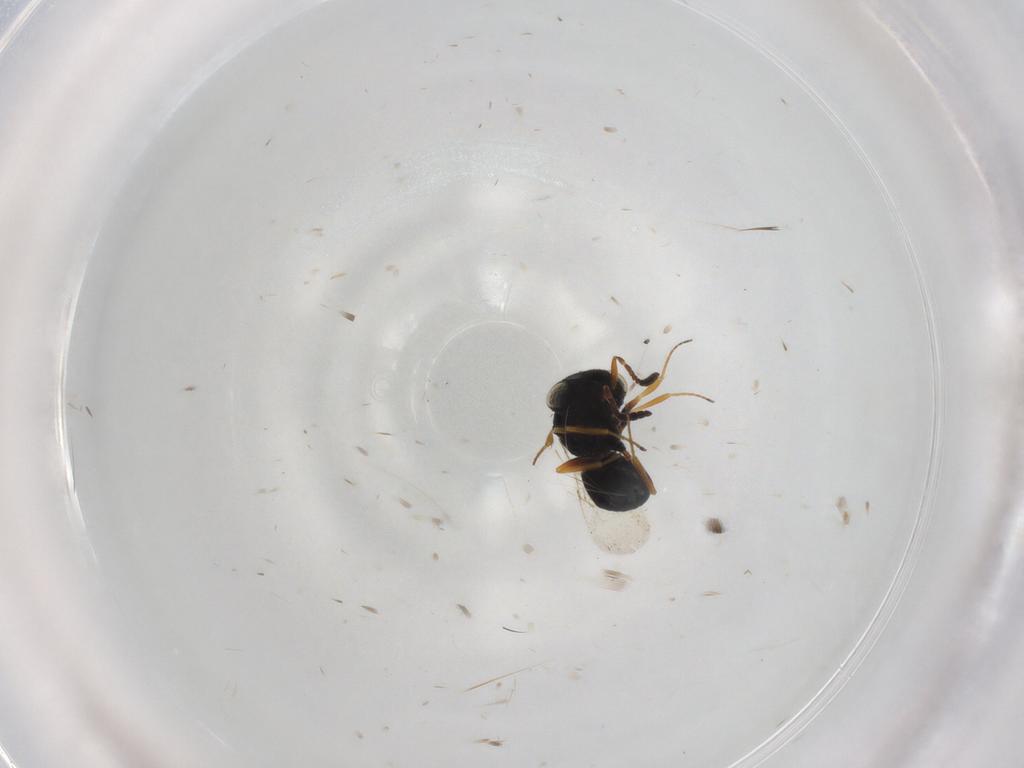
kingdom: Animalia
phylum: Arthropoda
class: Insecta
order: Hymenoptera
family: Scelionidae
